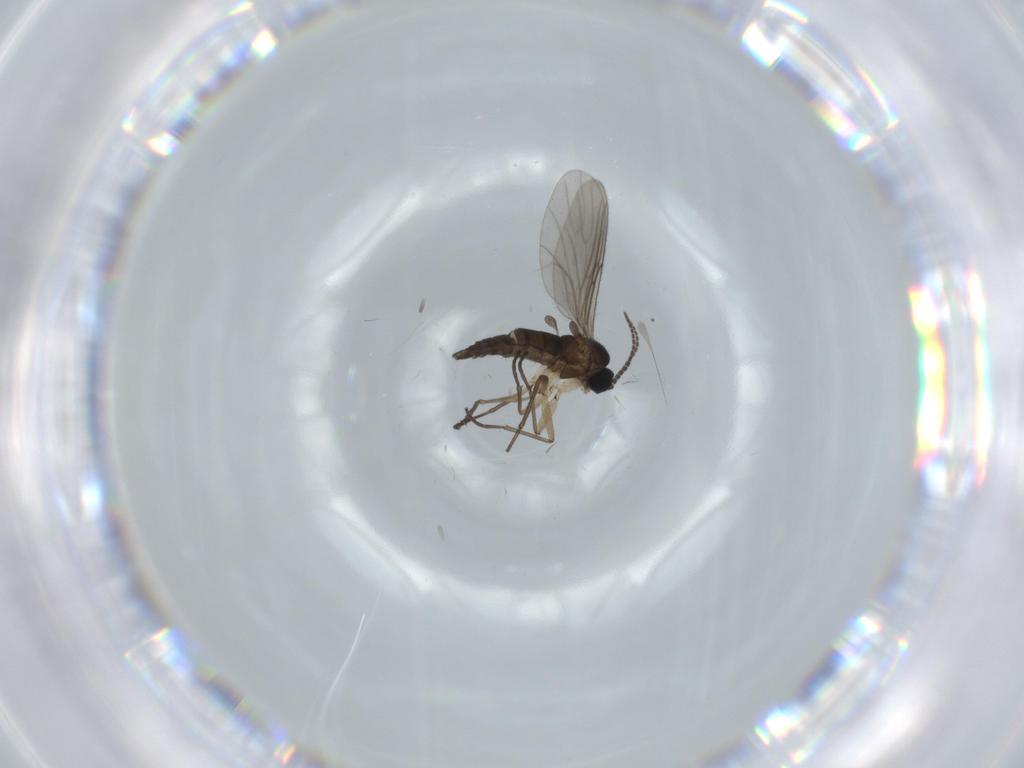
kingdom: Animalia
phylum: Arthropoda
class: Insecta
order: Diptera
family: Sciaridae
